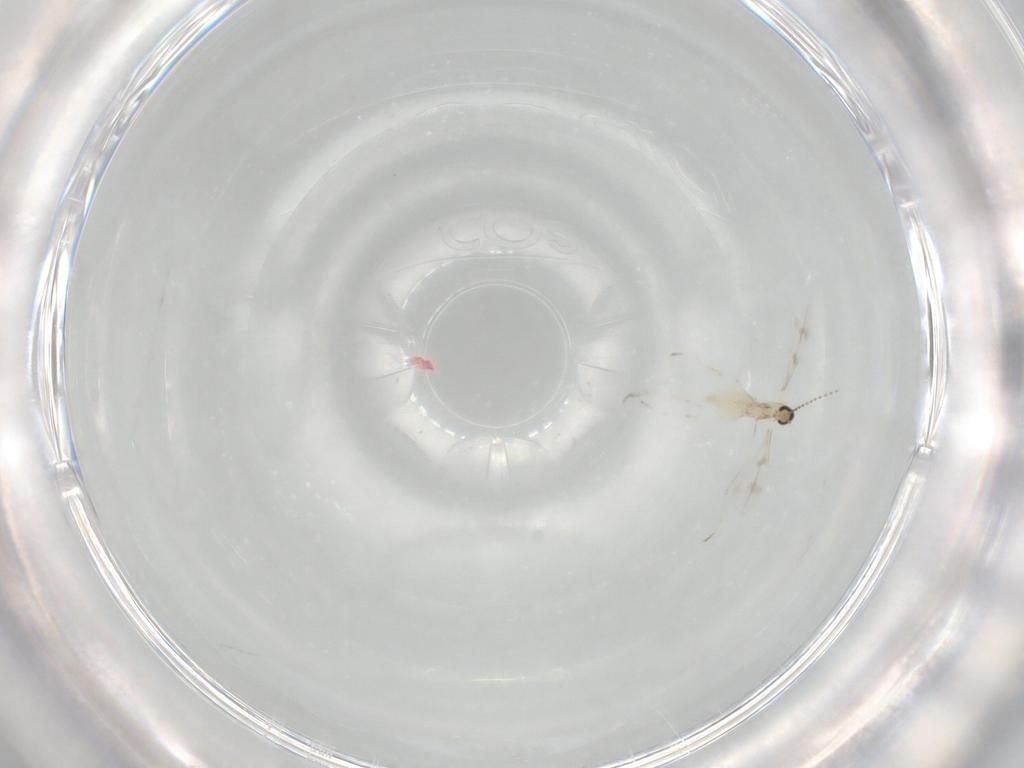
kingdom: Animalia
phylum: Arthropoda
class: Insecta
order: Diptera
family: Cecidomyiidae
